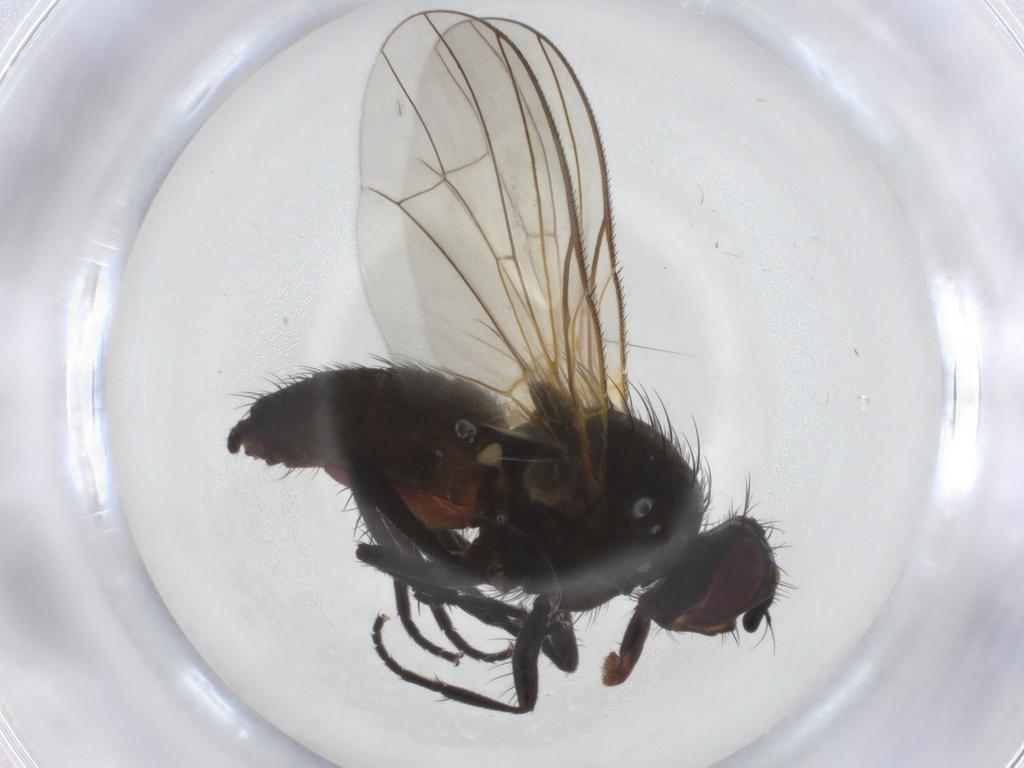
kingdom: Animalia
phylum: Arthropoda
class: Insecta
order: Diptera
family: Anthomyiidae
